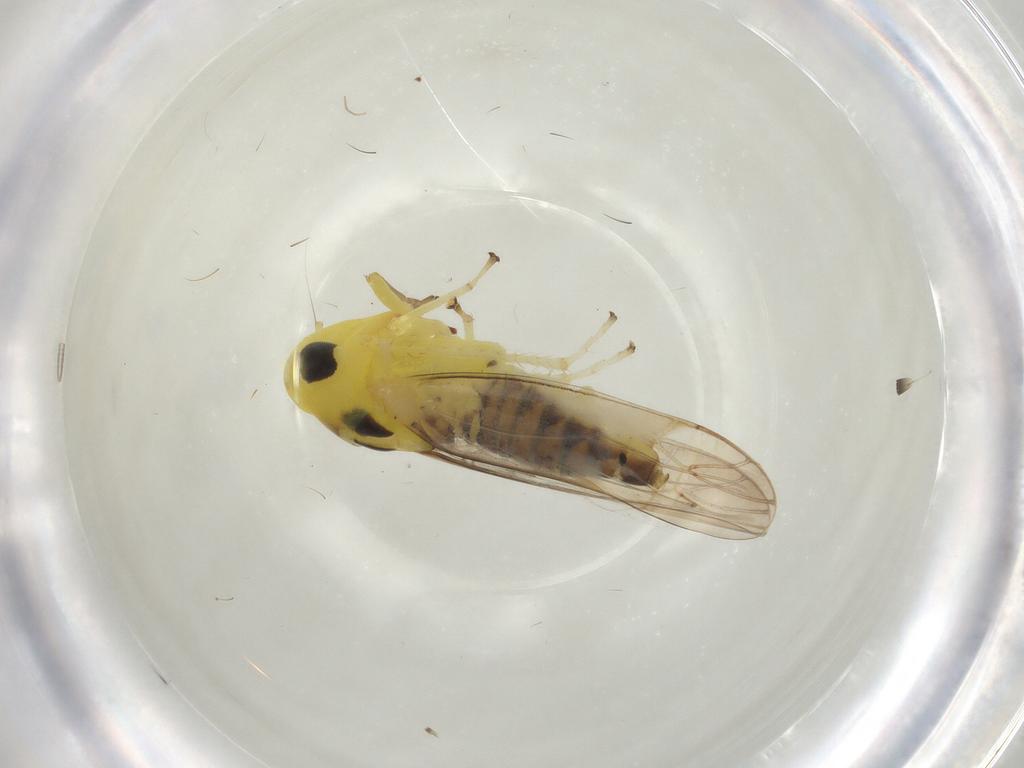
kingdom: Animalia
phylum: Arthropoda
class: Insecta
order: Hemiptera
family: Cicadellidae
